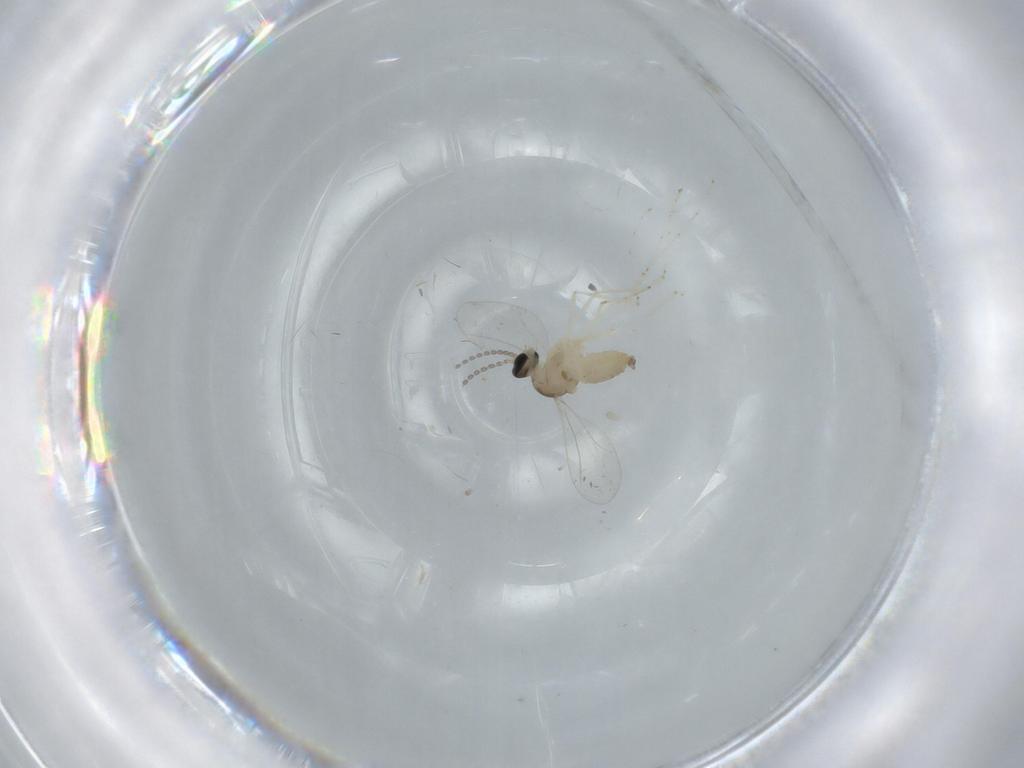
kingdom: Animalia
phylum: Arthropoda
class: Insecta
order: Diptera
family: Cecidomyiidae
